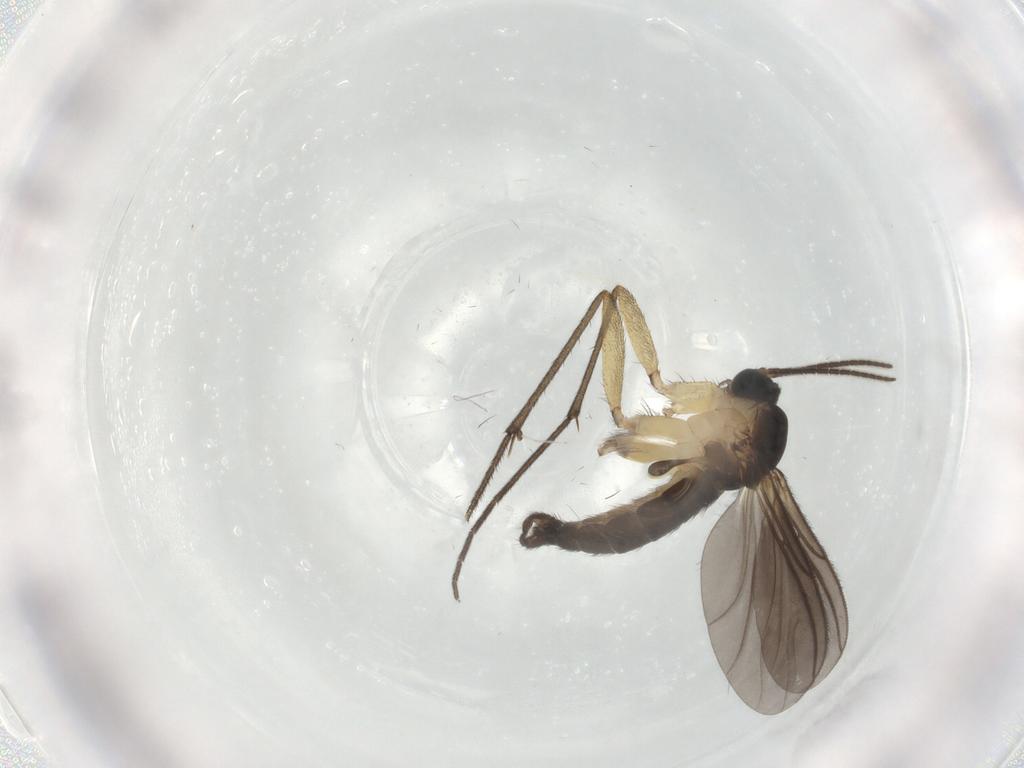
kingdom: Animalia
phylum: Arthropoda
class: Insecta
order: Diptera
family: Sciaridae
